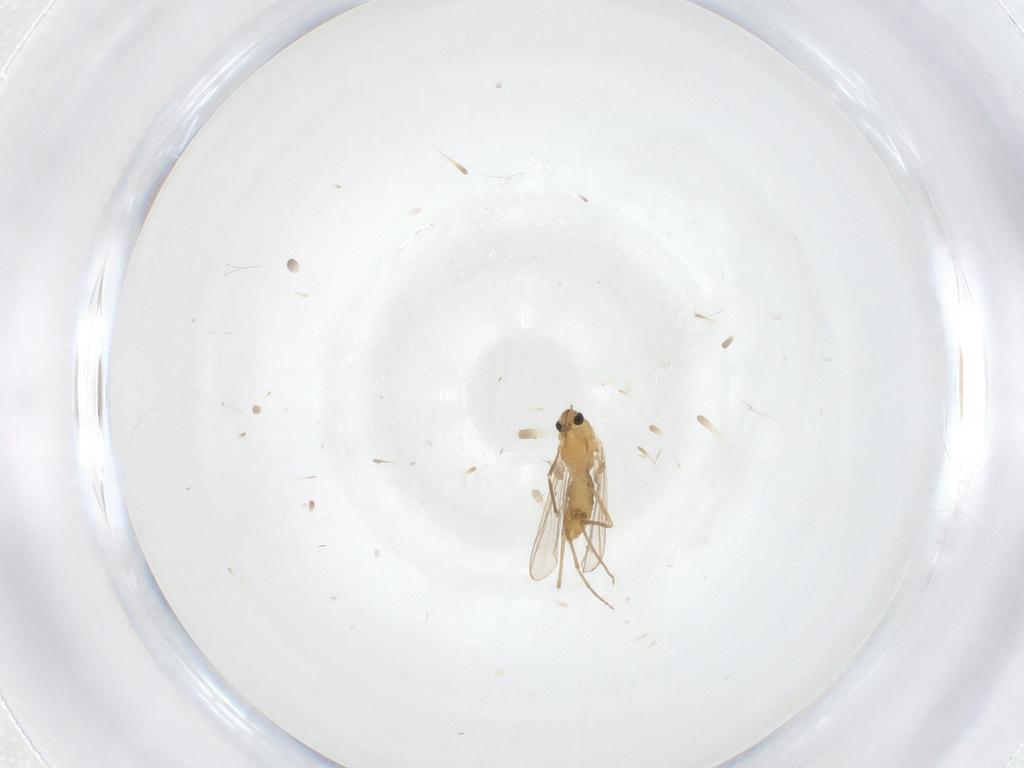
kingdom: Animalia
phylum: Arthropoda
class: Insecta
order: Diptera
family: Chironomidae
